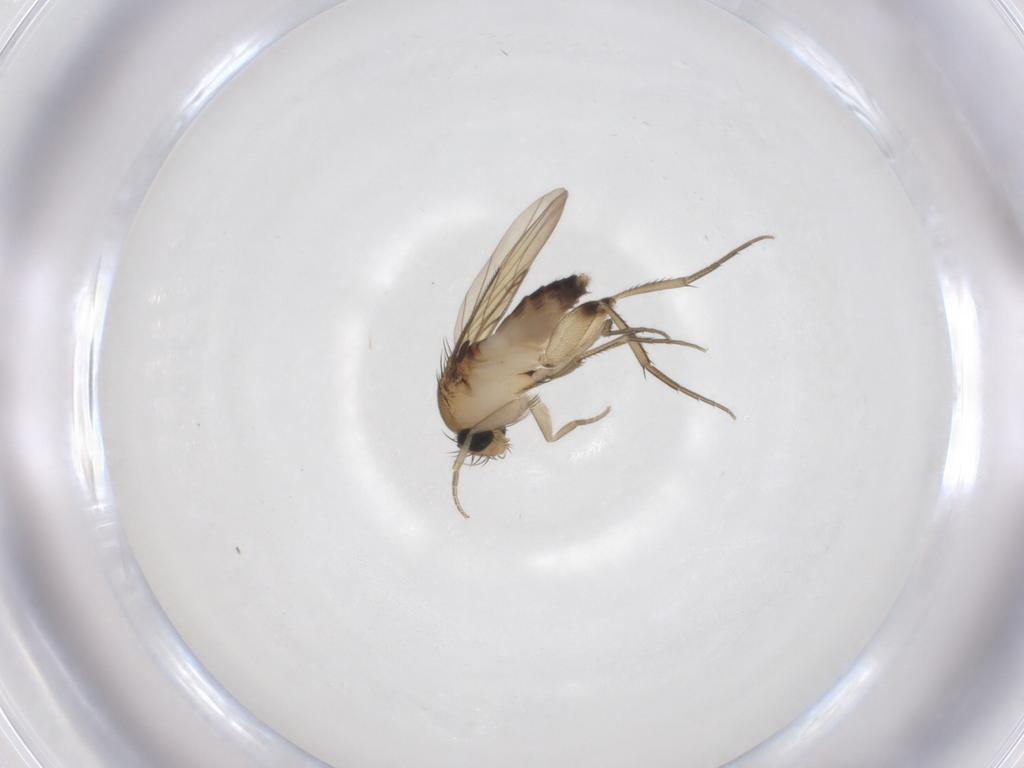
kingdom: Animalia
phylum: Arthropoda
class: Insecta
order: Diptera
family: Phoridae
